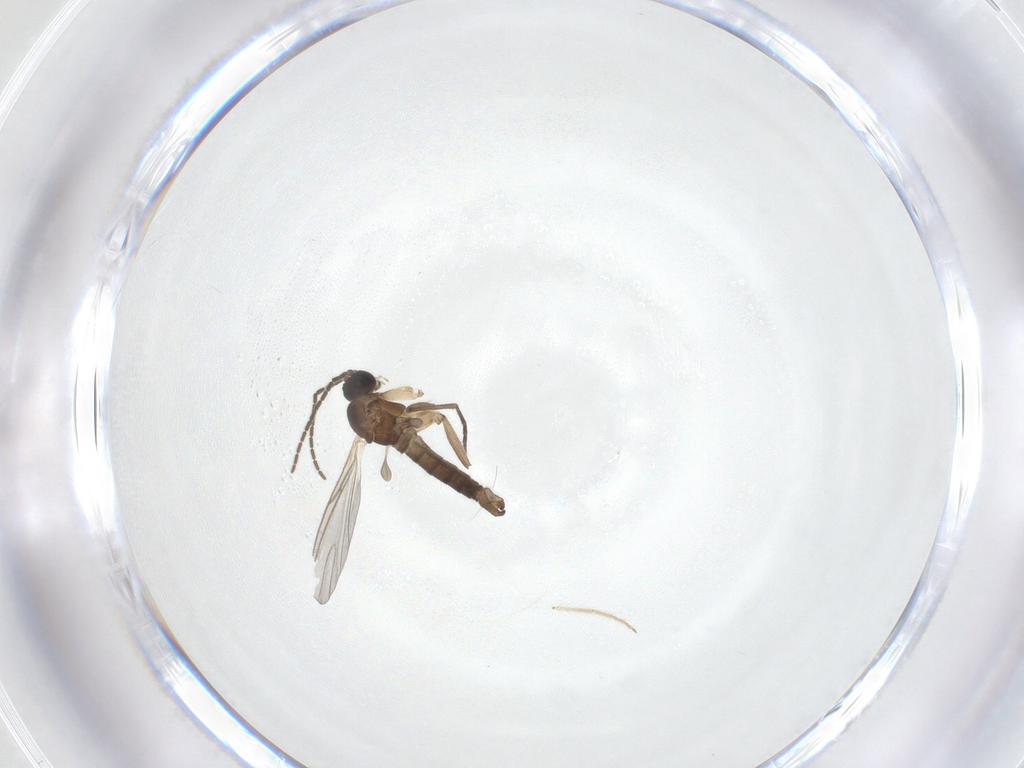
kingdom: Animalia
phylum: Arthropoda
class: Insecta
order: Diptera
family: Sciaridae
